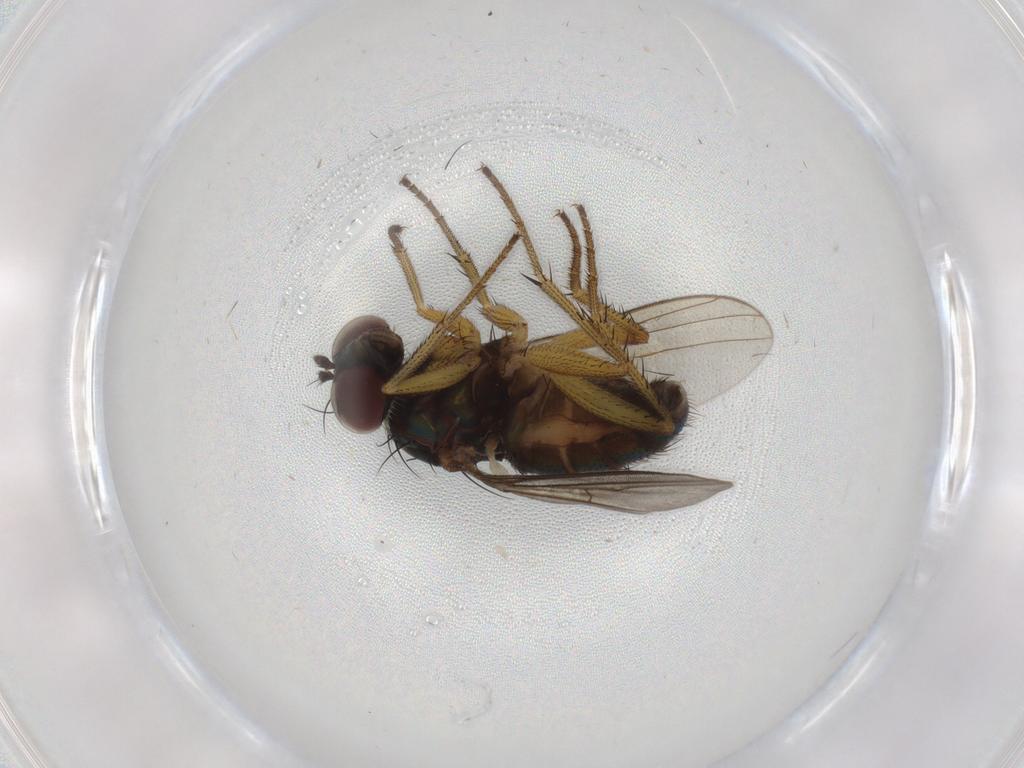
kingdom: Animalia
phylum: Arthropoda
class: Insecta
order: Diptera
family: Dolichopodidae
